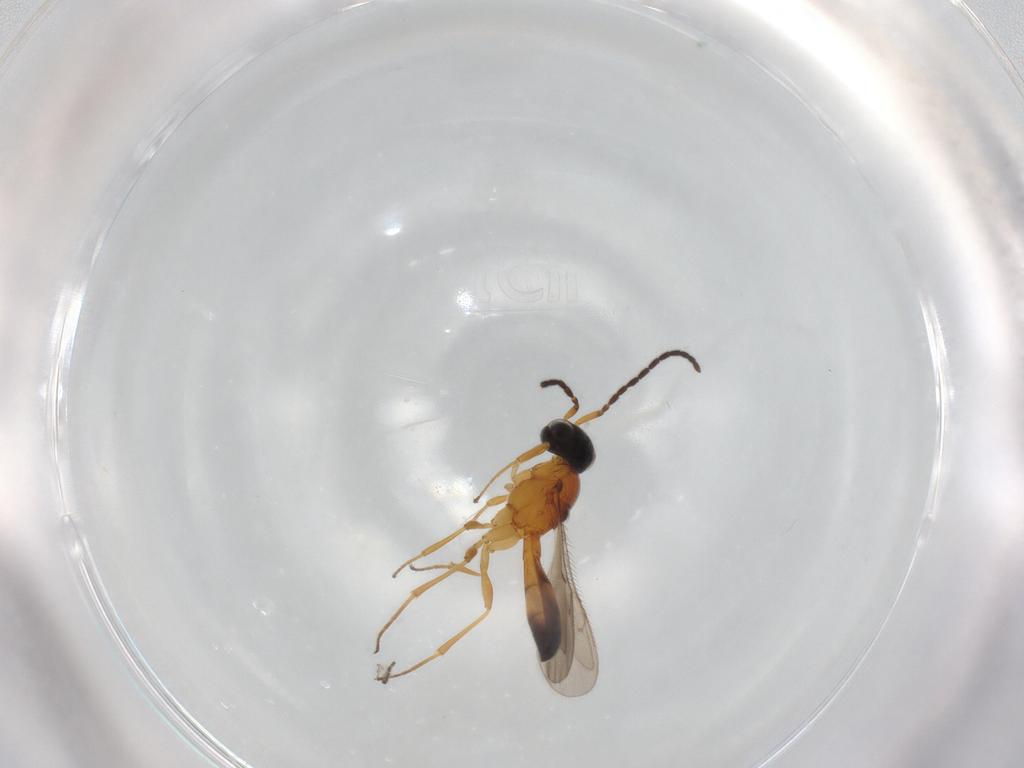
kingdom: Animalia
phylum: Arthropoda
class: Insecta
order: Hymenoptera
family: Scelionidae
